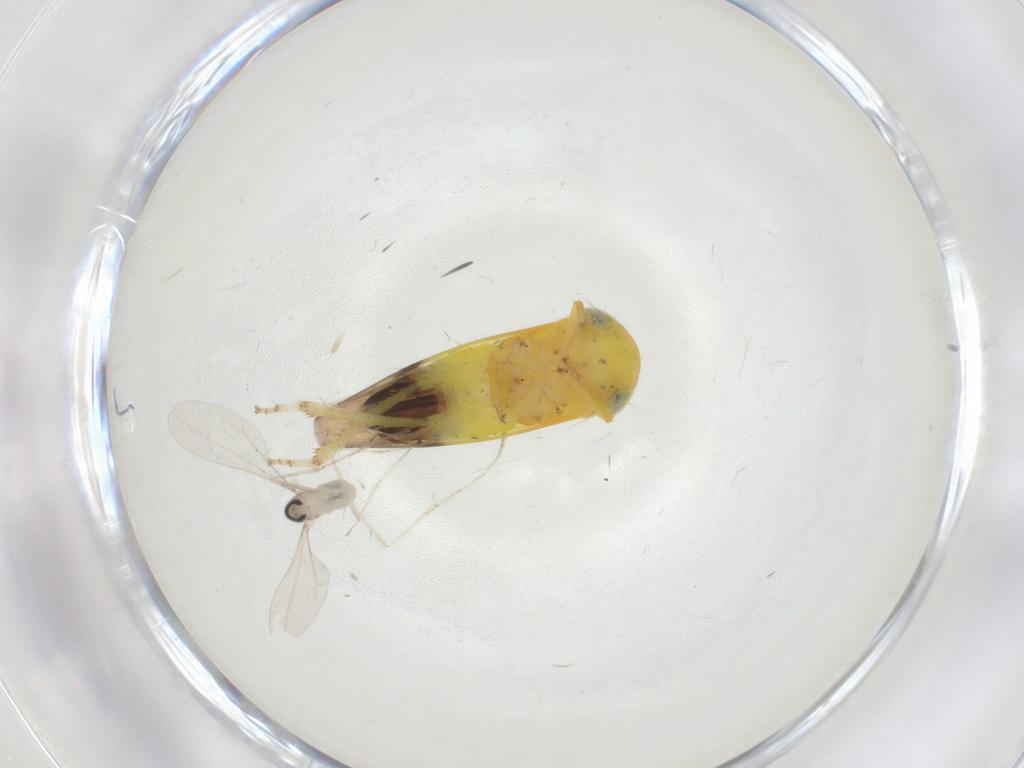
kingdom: Animalia
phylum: Arthropoda
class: Insecta
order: Diptera
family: Cecidomyiidae
